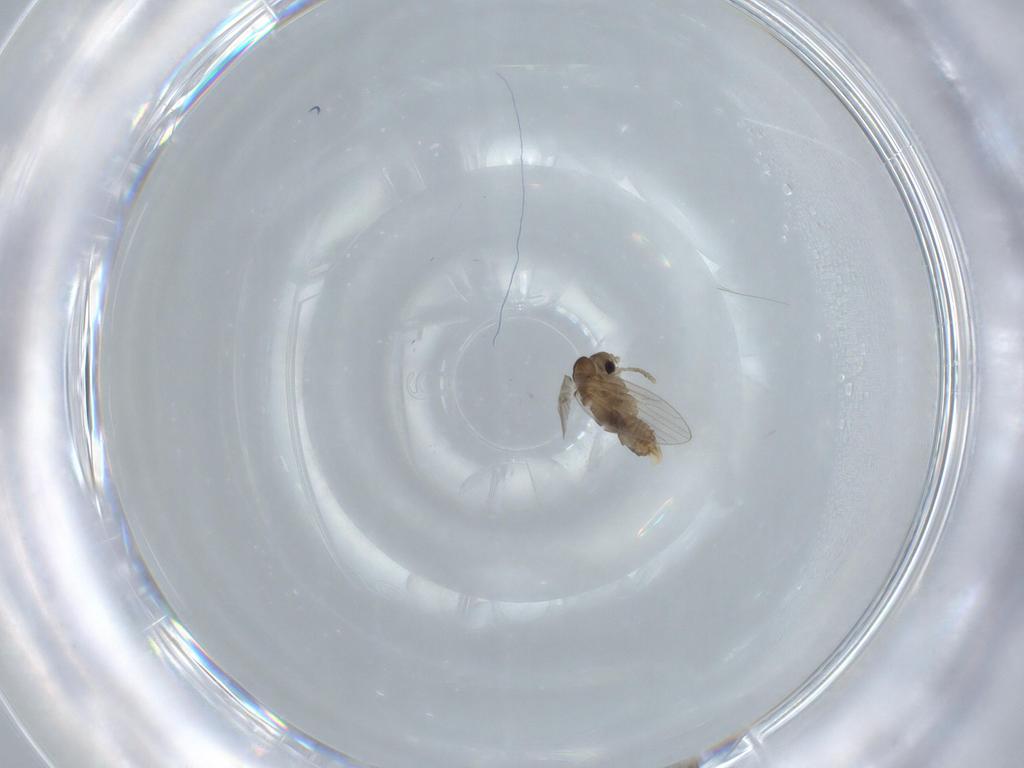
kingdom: Animalia
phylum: Arthropoda
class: Insecta
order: Diptera
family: Psychodidae
